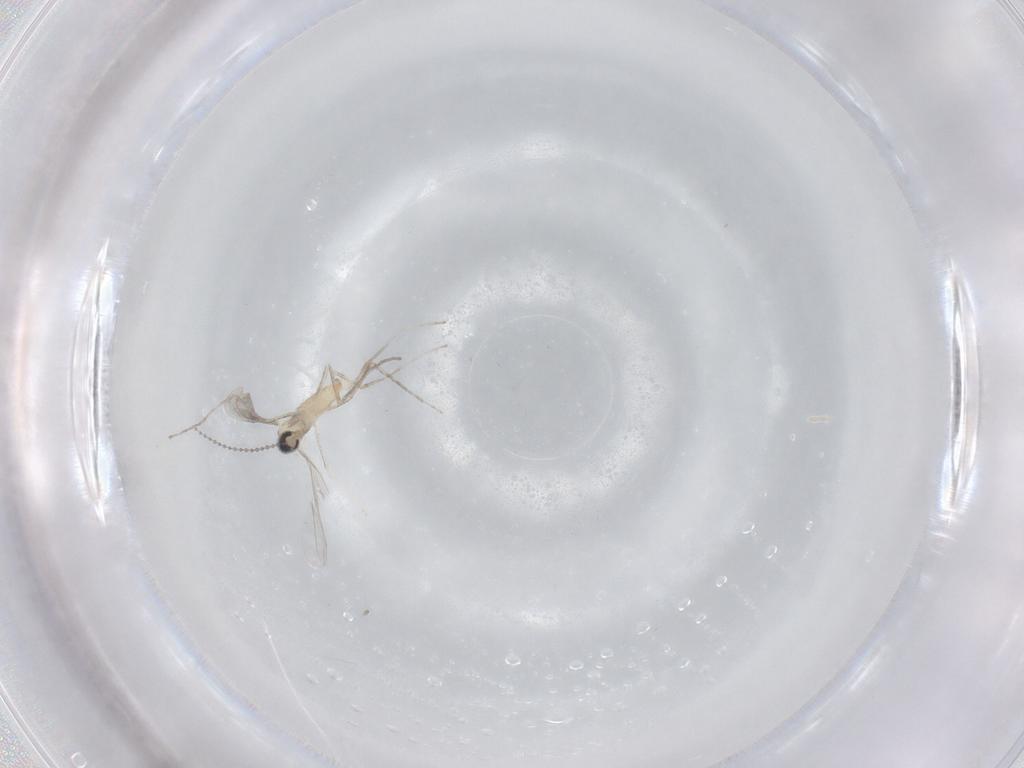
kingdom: Animalia
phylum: Arthropoda
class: Insecta
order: Diptera
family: Cecidomyiidae
